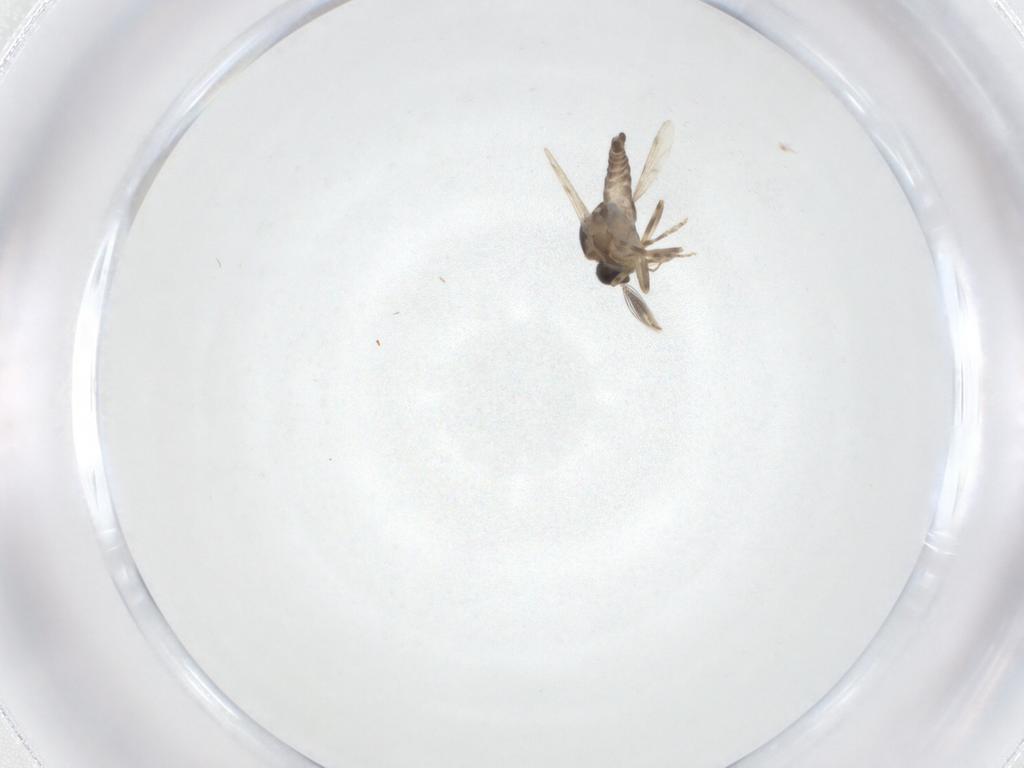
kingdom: Animalia
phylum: Arthropoda
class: Insecta
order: Diptera
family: Ceratopogonidae
